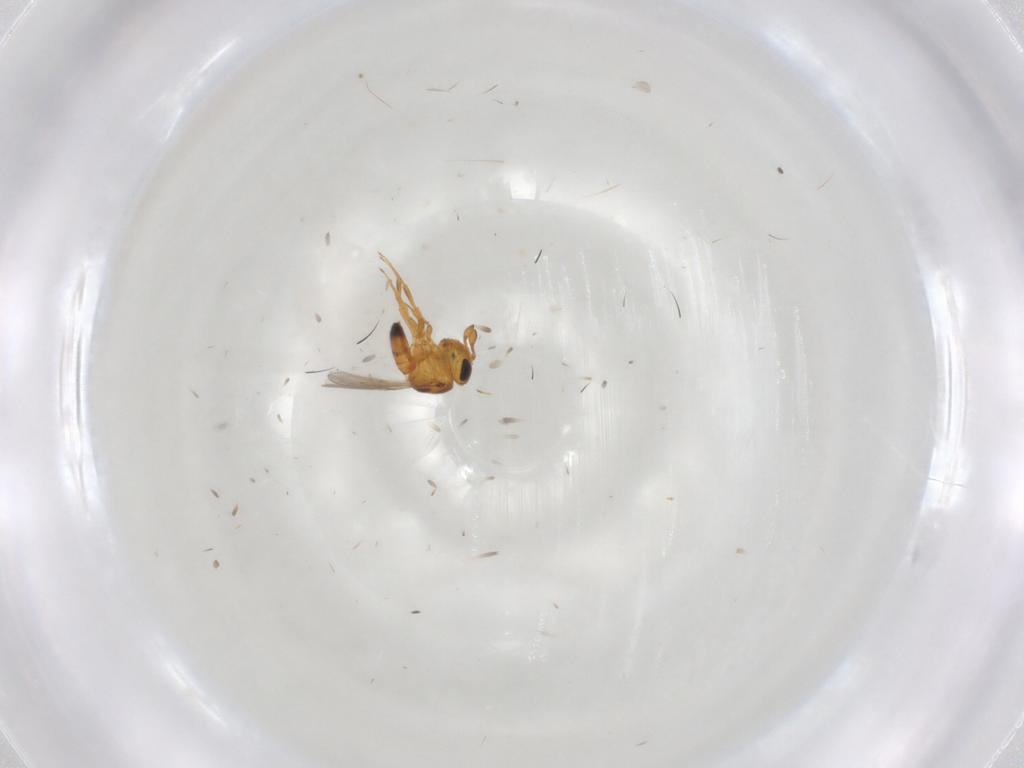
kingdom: Animalia
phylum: Arthropoda
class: Insecta
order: Hymenoptera
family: Scelionidae
